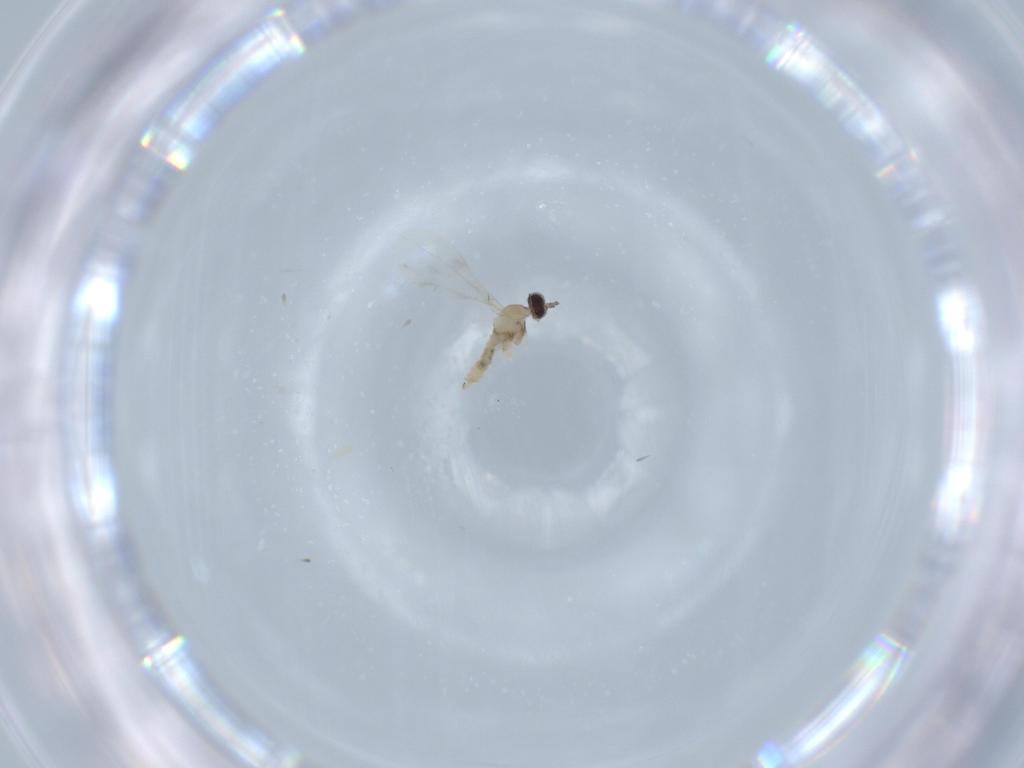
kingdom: Animalia
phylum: Arthropoda
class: Insecta
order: Diptera
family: Cecidomyiidae
